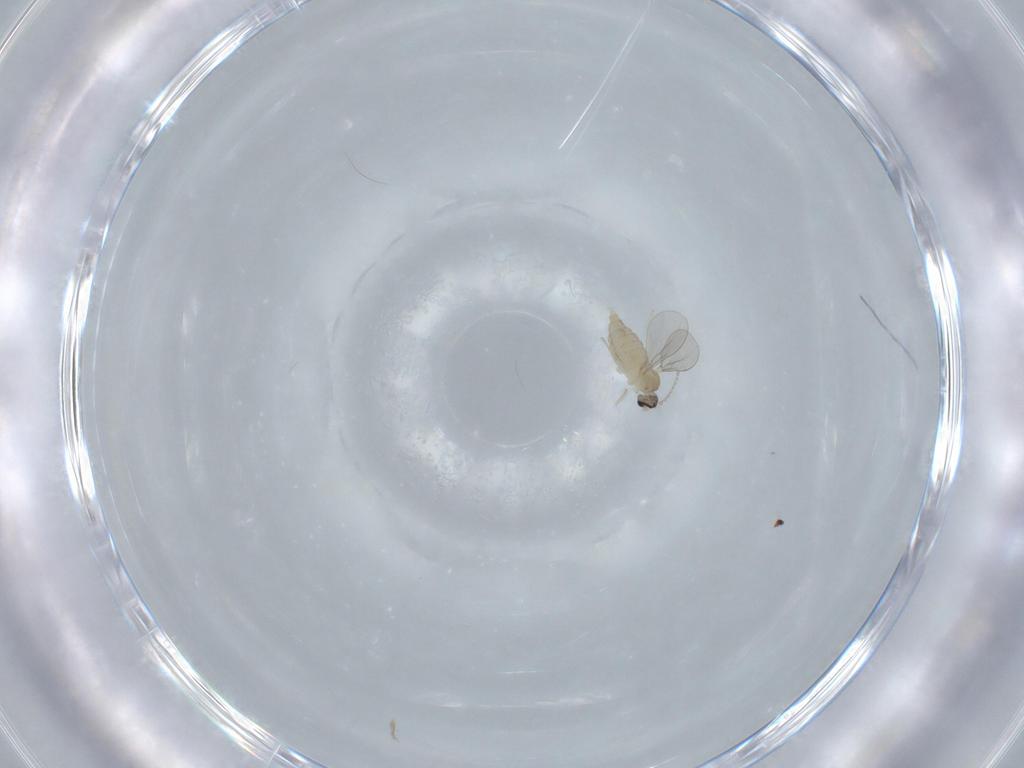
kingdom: Animalia
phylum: Arthropoda
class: Insecta
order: Diptera
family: Cecidomyiidae
